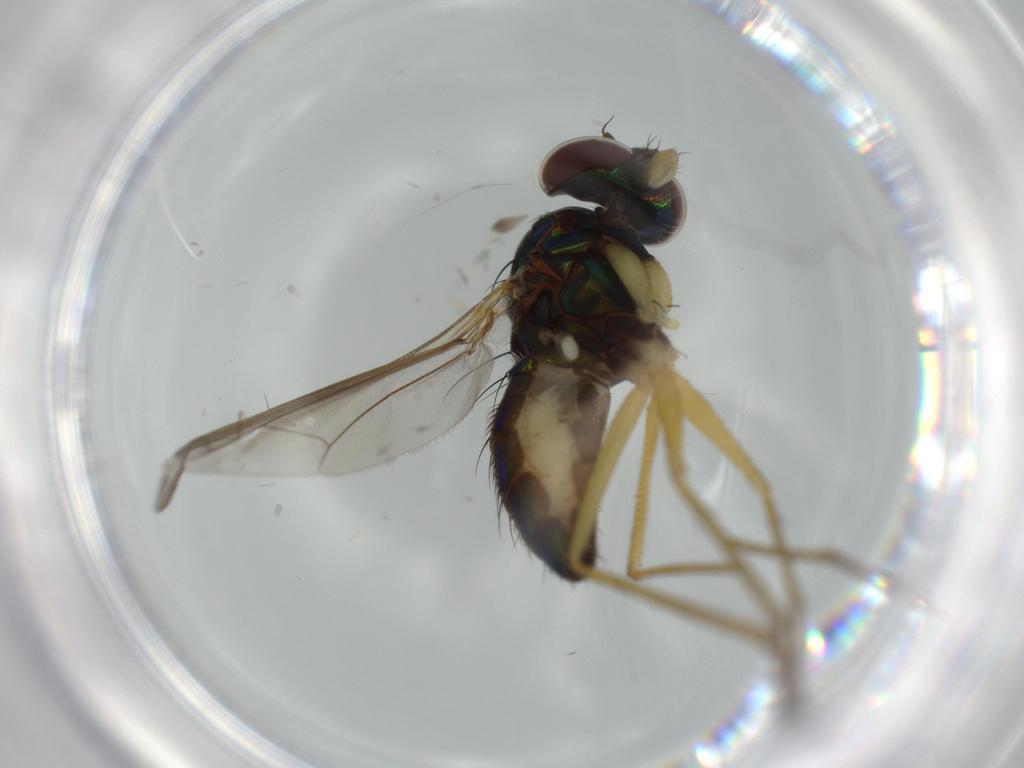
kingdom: Animalia
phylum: Arthropoda
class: Insecta
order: Diptera
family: Dolichopodidae
